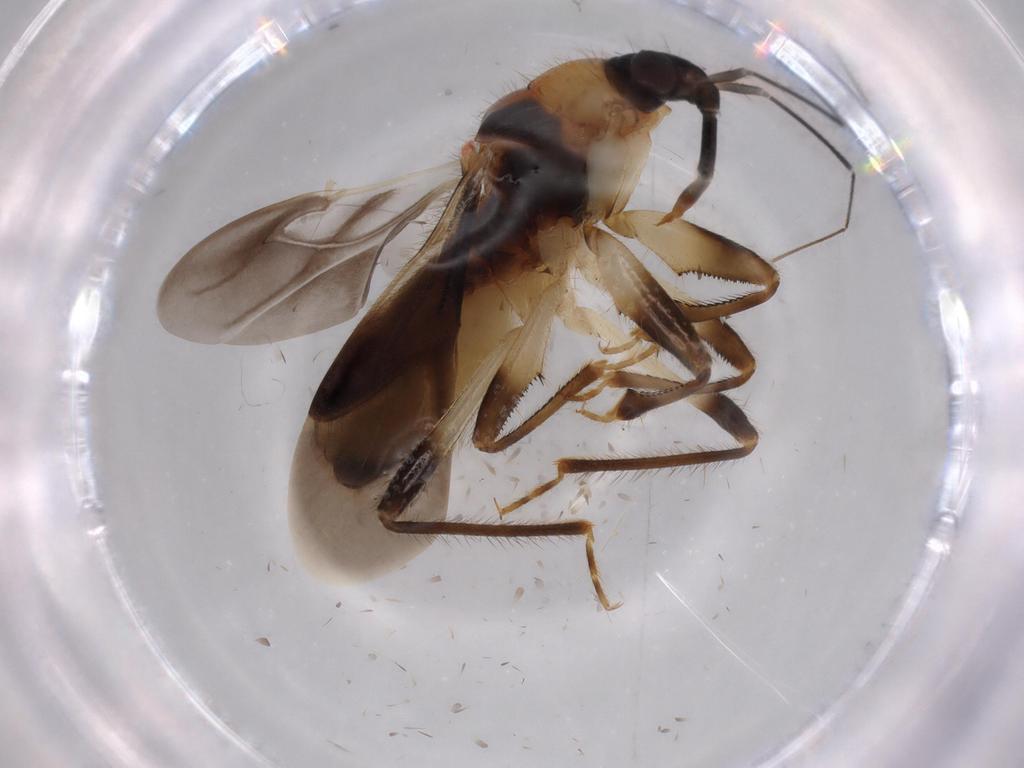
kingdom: Animalia
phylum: Arthropoda
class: Insecta
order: Hemiptera
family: Nabidae
